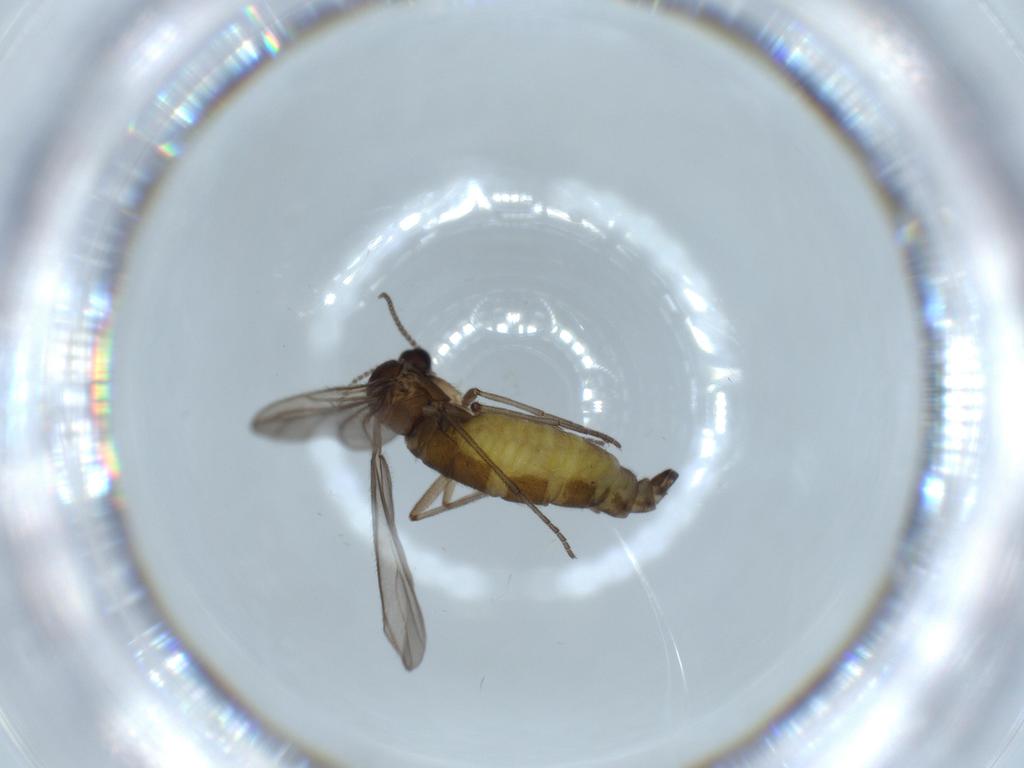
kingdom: Animalia
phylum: Arthropoda
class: Insecta
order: Diptera
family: Sciaridae
